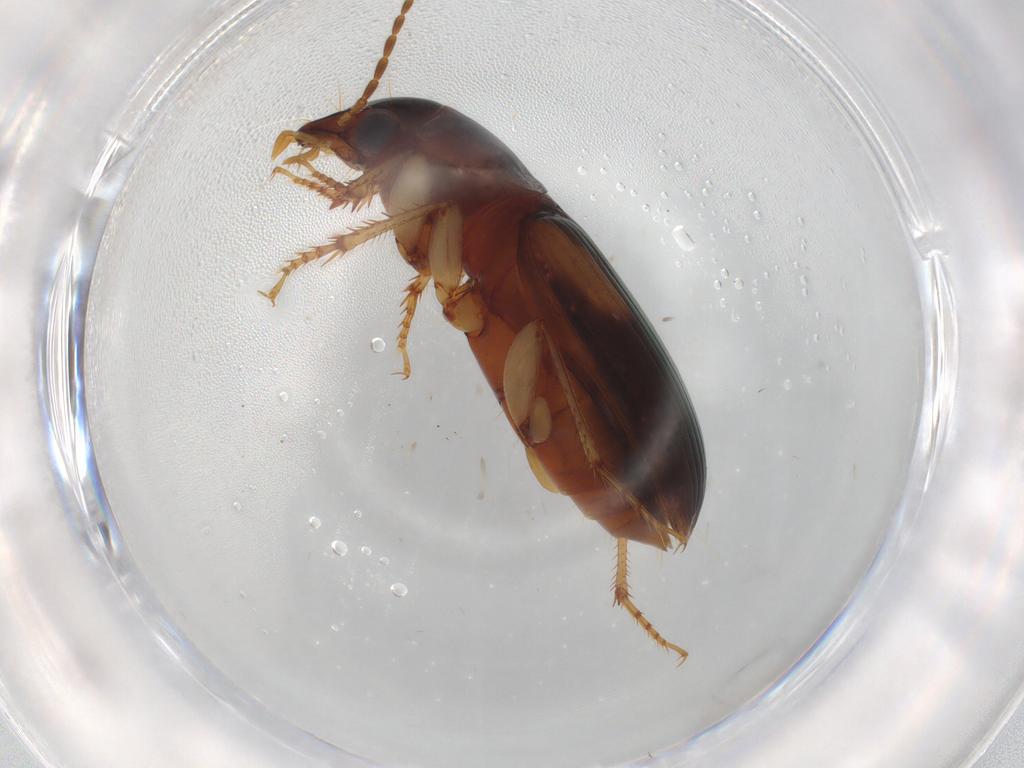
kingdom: Animalia
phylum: Arthropoda
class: Insecta
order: Coleoptera
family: Carabidae
